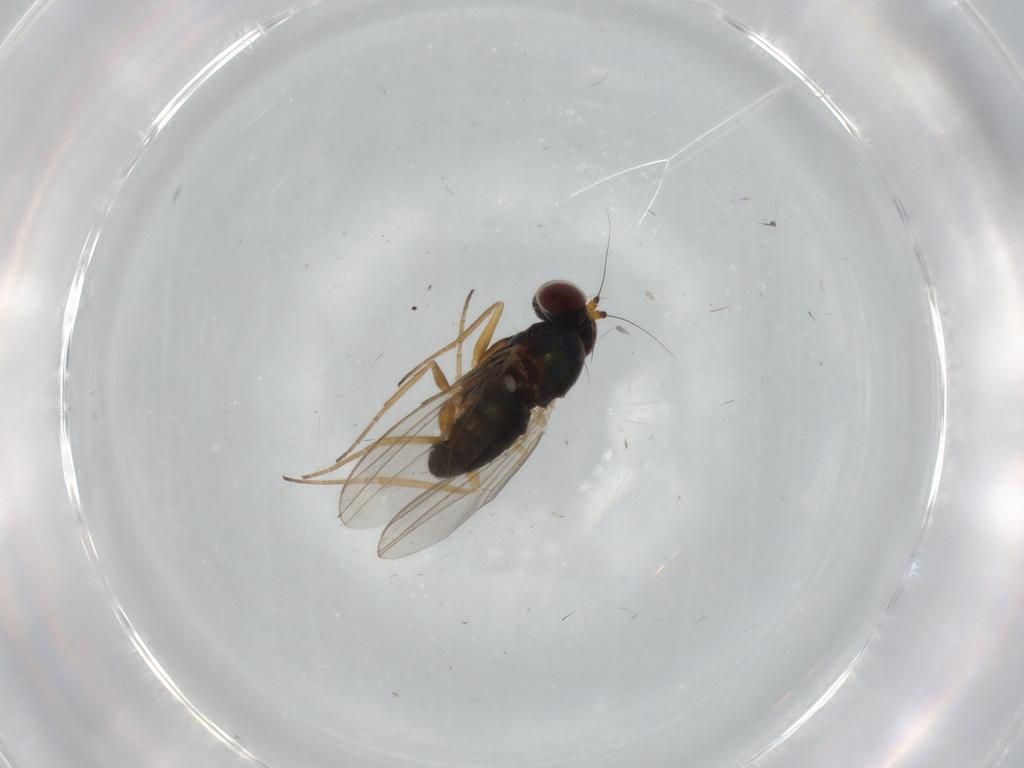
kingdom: Animalia
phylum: Arthropoda
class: Insecta
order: Diptera
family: Dolichopodidae
